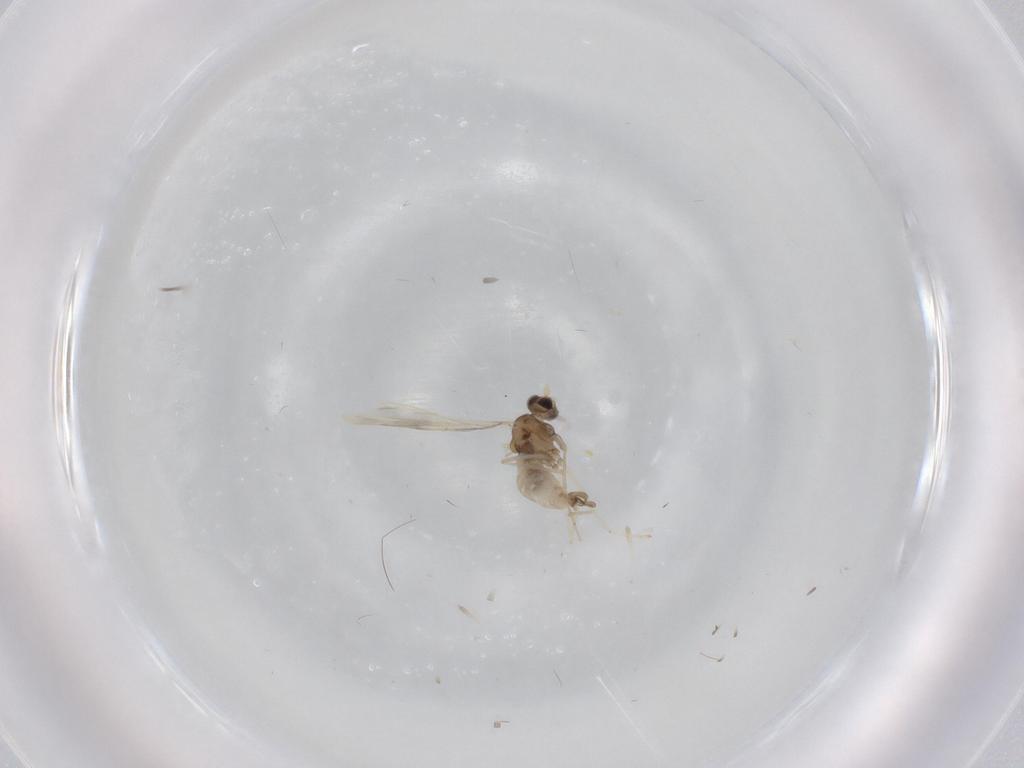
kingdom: Animalia
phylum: Arthropoda
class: Insecta
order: Diptera
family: Cecidomyiidae
